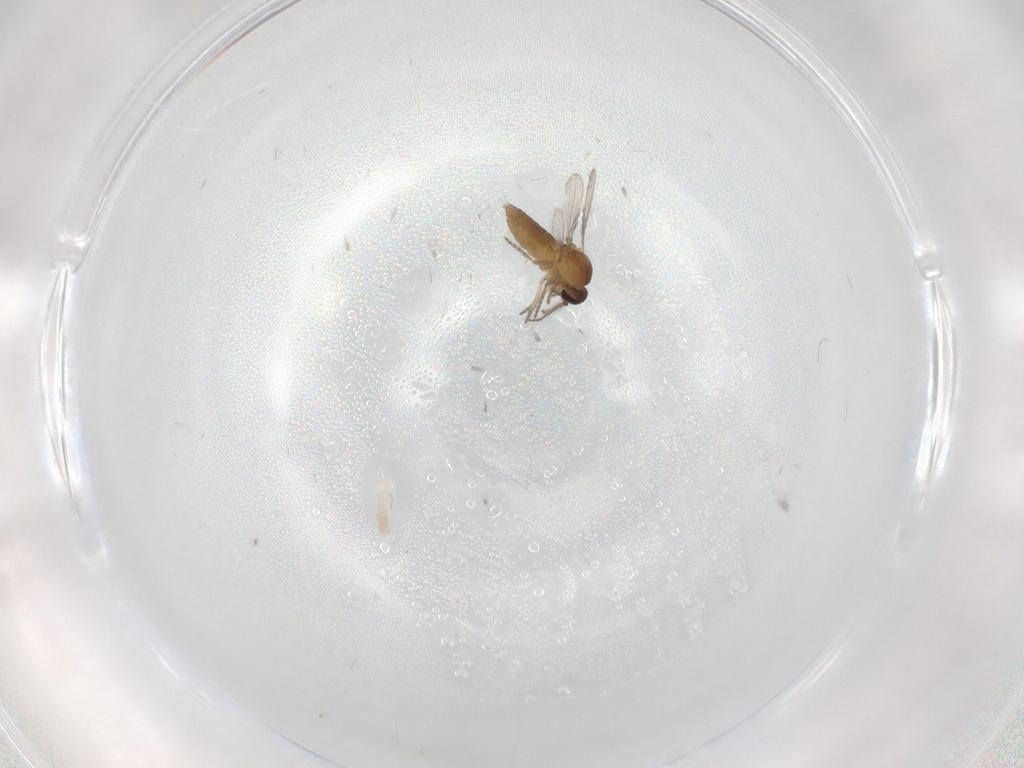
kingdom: Animalia
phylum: Arthropoda
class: Insecta
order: Diptera
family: Ceratopogonidae
